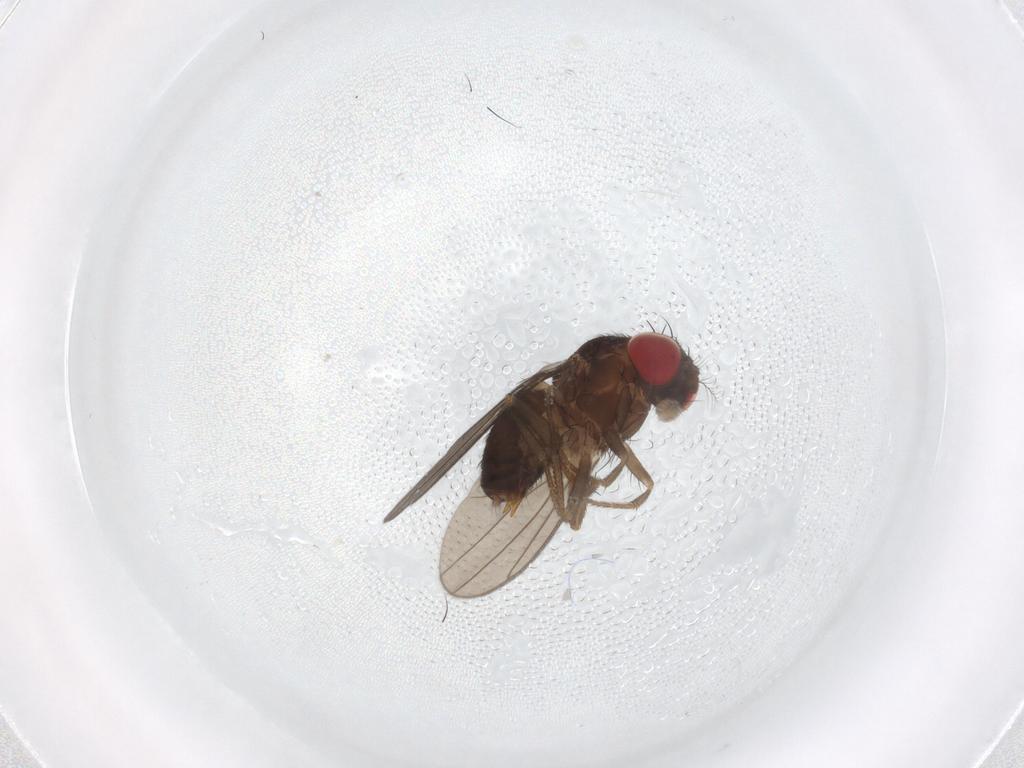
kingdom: Animalia
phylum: Arthropoda
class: Insecta
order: Diptera
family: Drosophilidae
